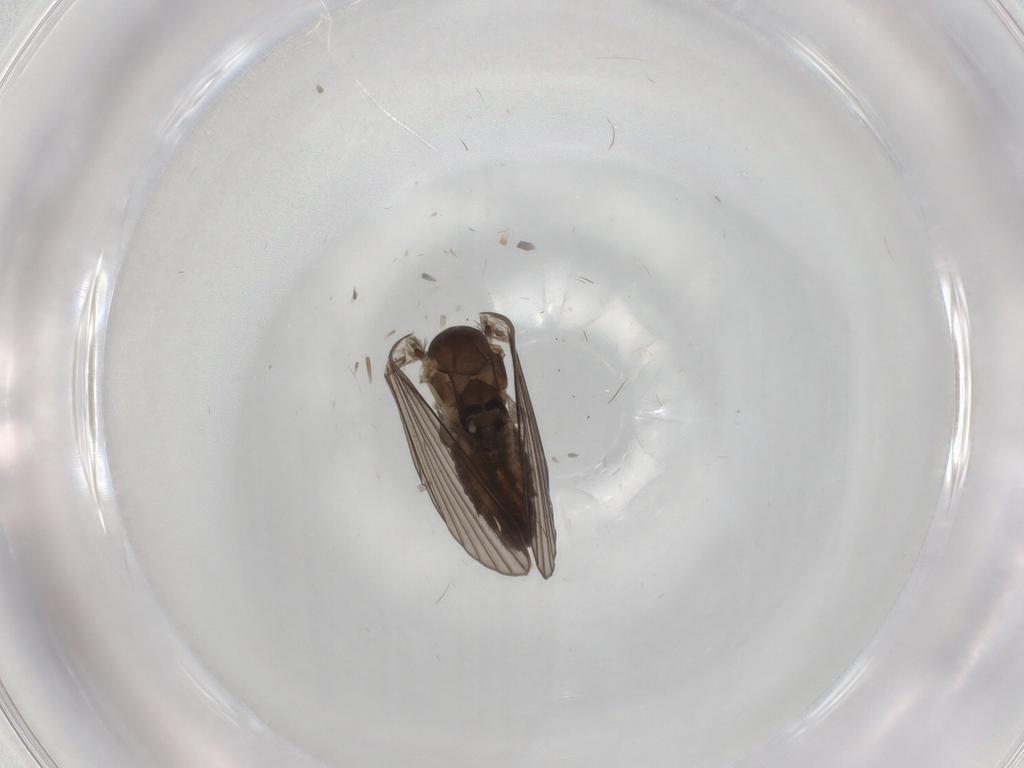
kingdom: Animalia
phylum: Arthropoda
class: Insecta
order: Diptera
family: Psychodidae
